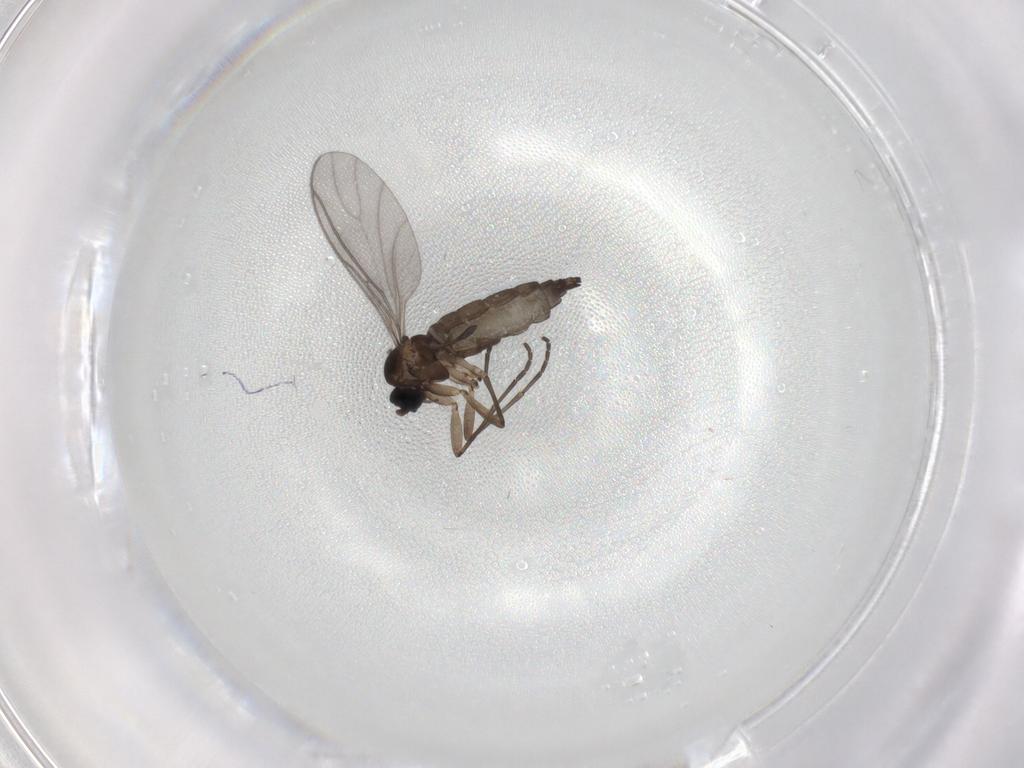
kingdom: Animalia
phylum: Arthropoda
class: Insecta
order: Diptera
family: Sciaridae
